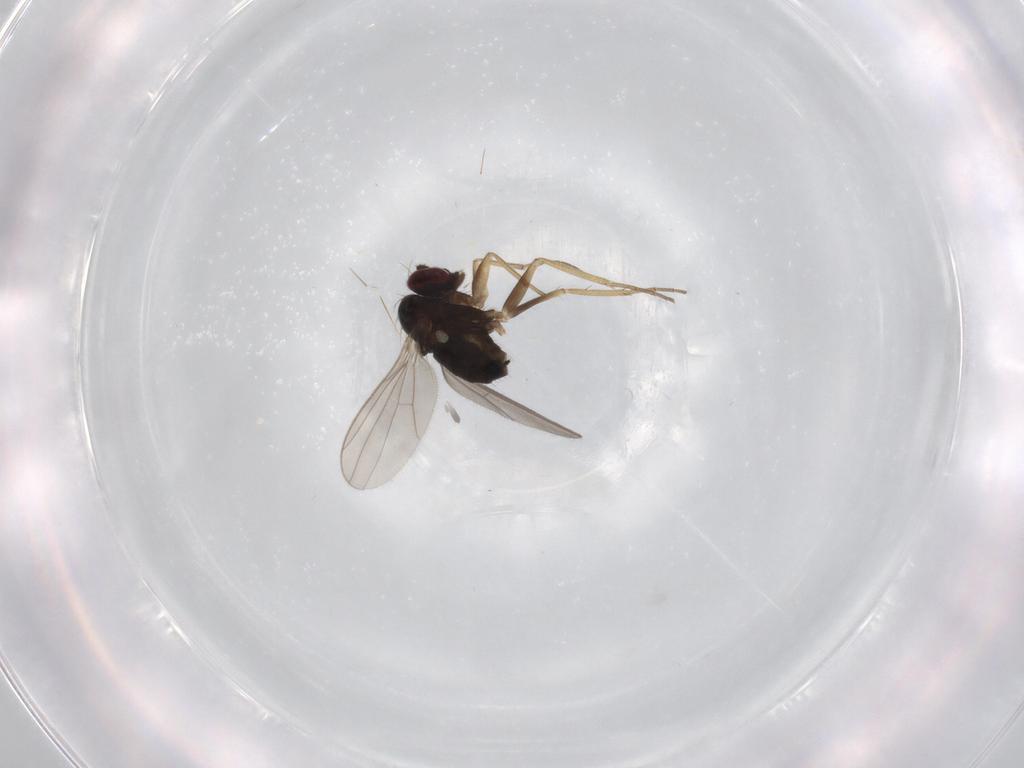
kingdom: Animalia
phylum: Arthropoda
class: Insecta
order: Diptera
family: Dolichopodidae
